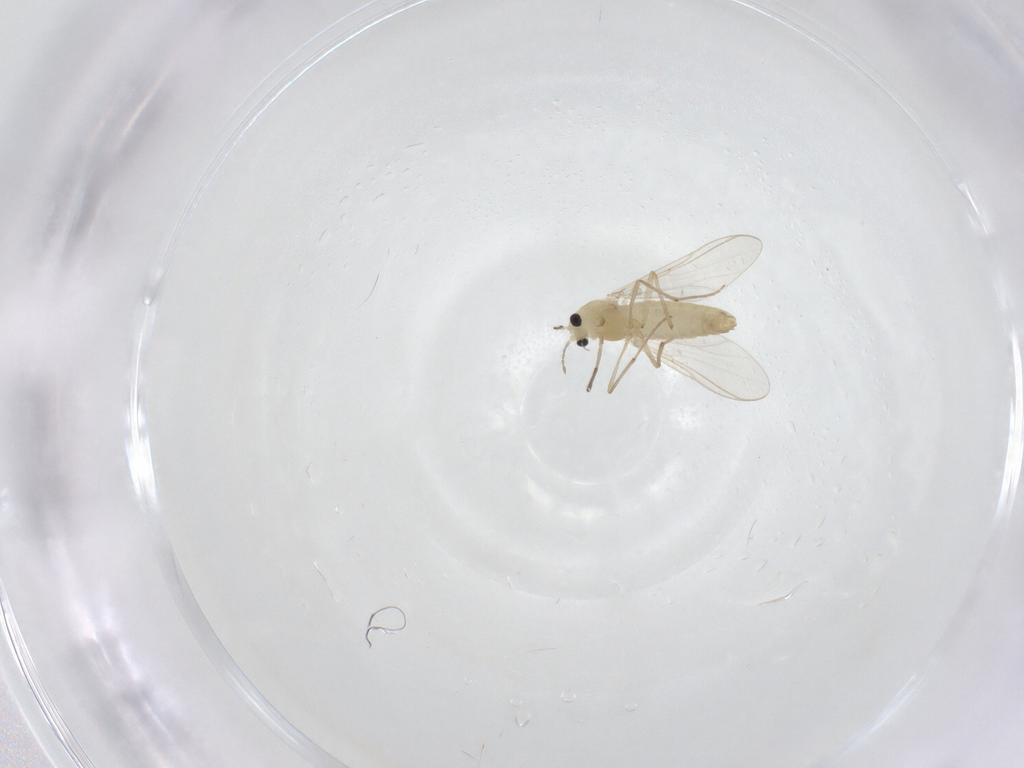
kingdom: Animalia
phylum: Arthropoda
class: Insecta
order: Diptera
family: Chironomidae
